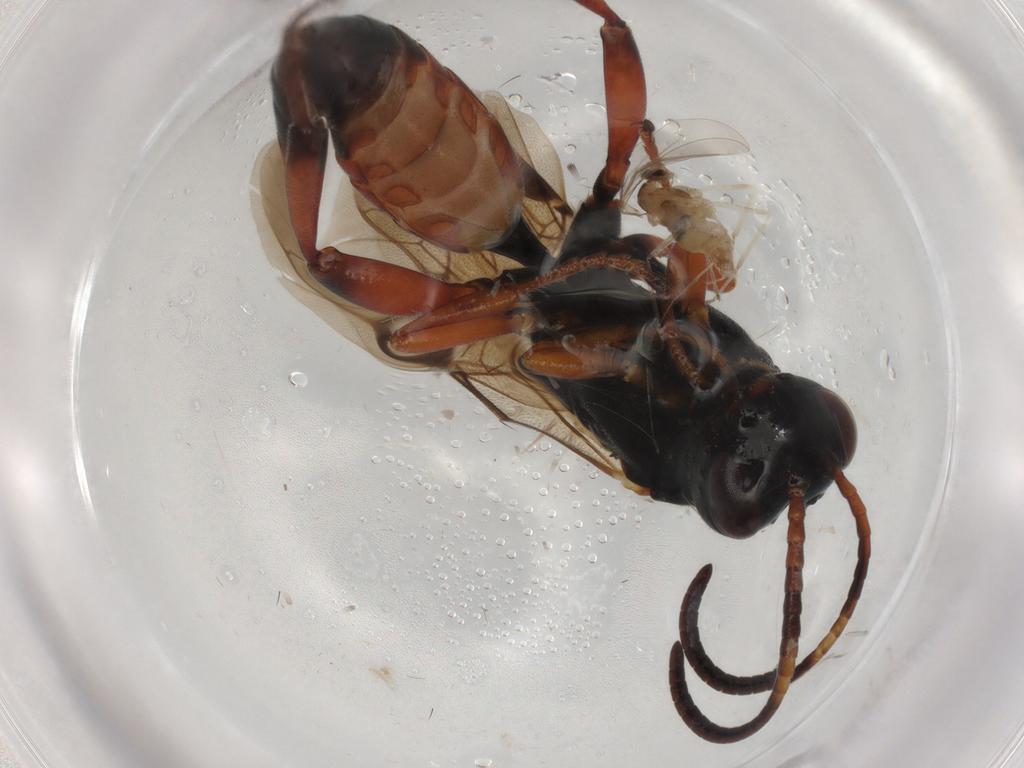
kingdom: Animalia
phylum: Arthropoda
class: Insecta
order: Hymenoptera
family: Ichneumonidae
